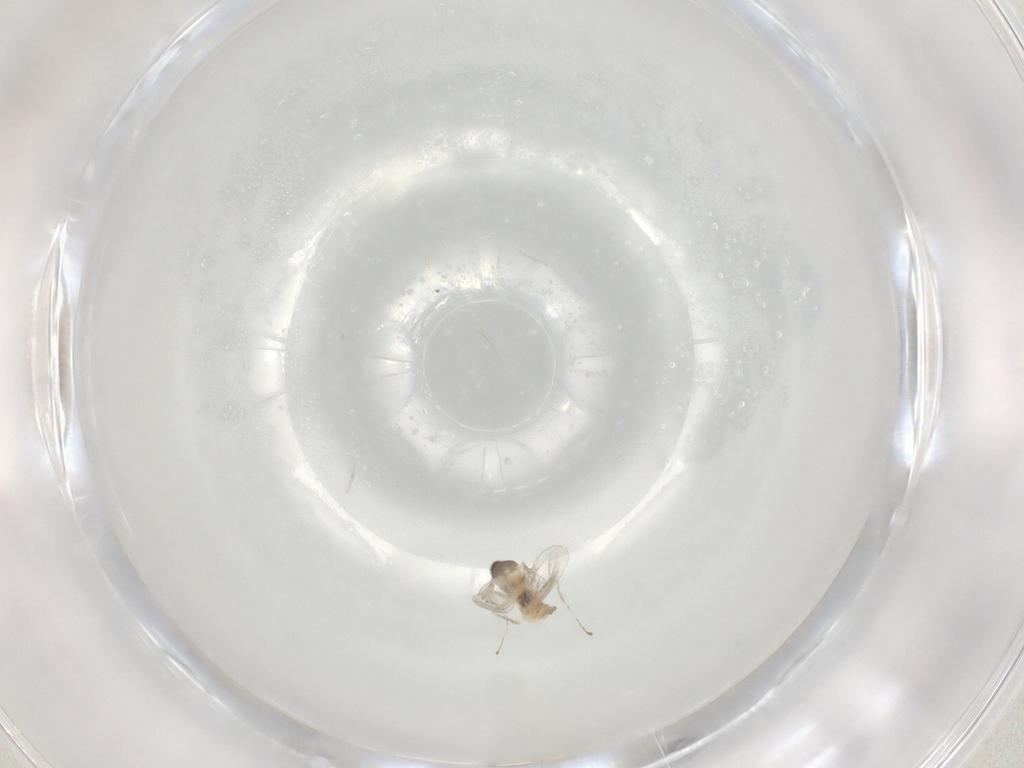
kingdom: Animalia
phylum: Arthropoda
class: Insecta
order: Diptera
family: Cecidomyiidae
